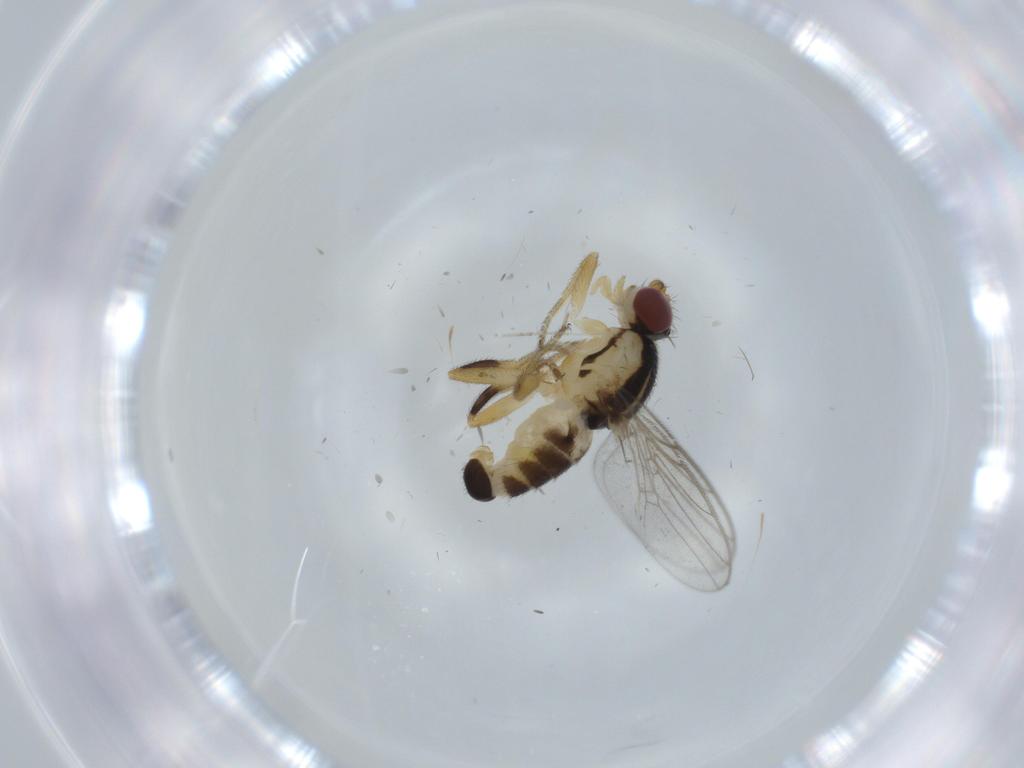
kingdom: Animalia
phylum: Arthropoda
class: Insecta
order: Diptera
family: Chloropidae
